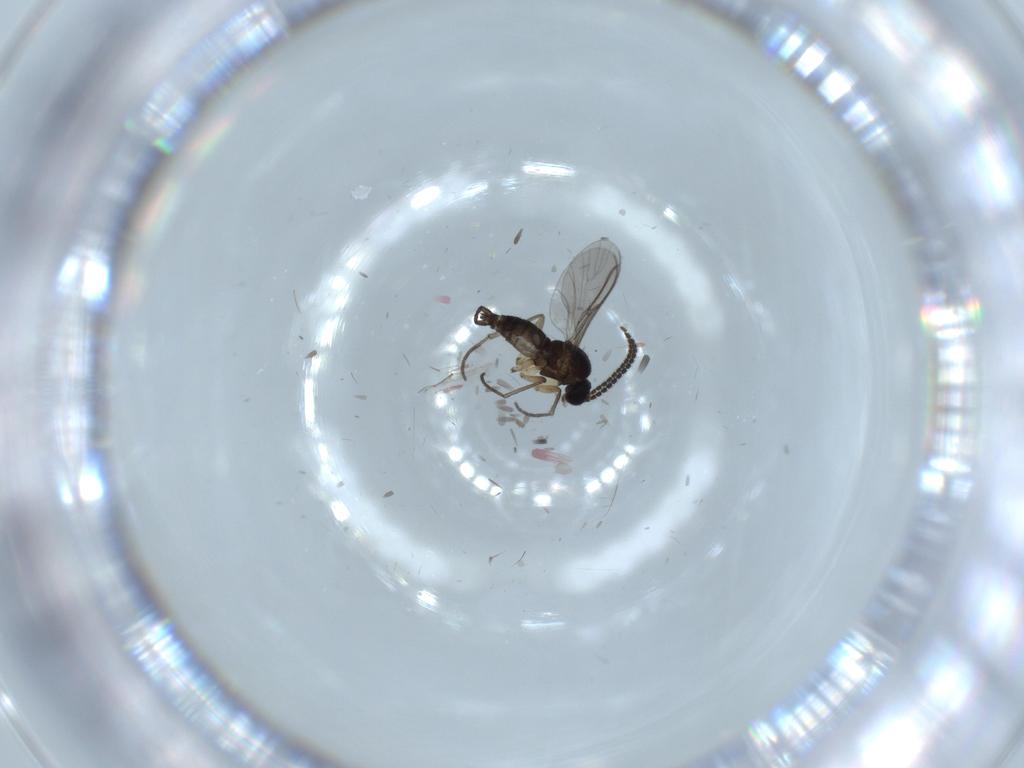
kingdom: Animalia
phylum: Arthropoda
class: Insecta
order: Diptera
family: Sciaridae
